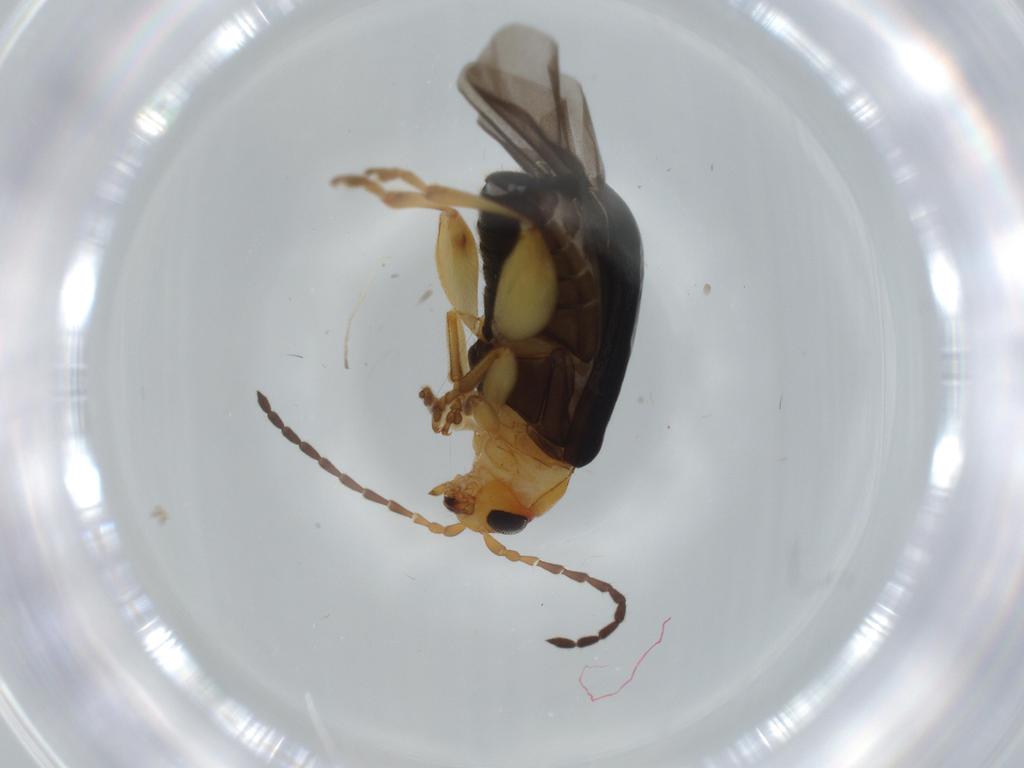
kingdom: Animalia
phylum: Arthropoda
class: Insecta
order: Coleoptera
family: Chrysomelidae
